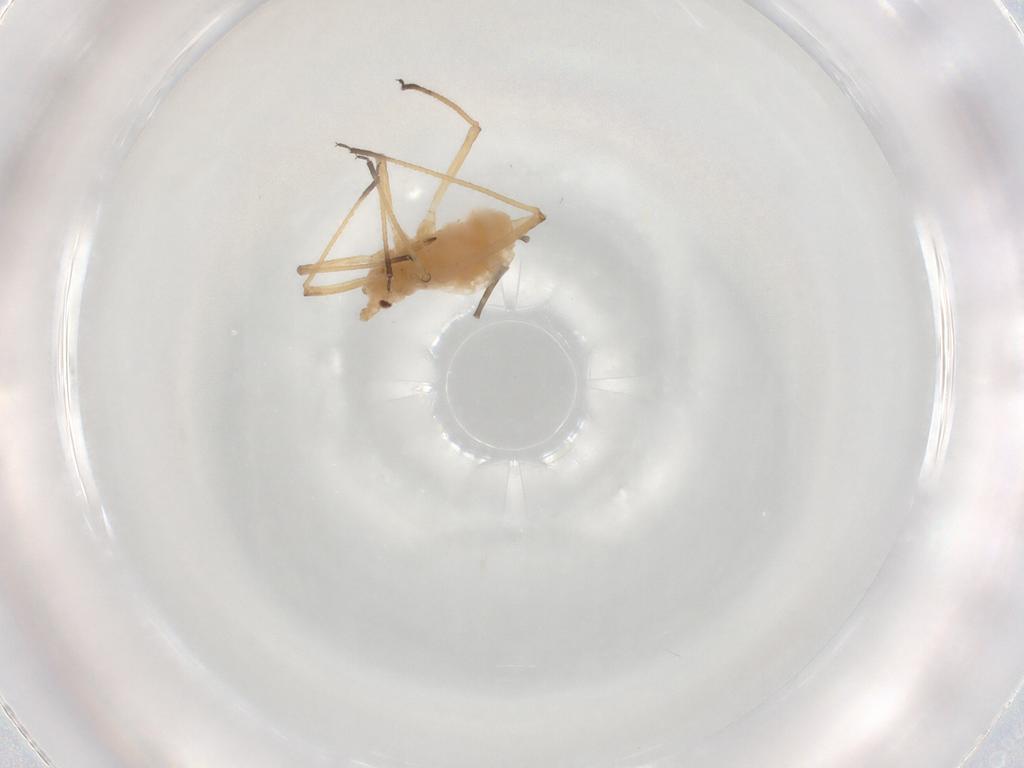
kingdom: Animalia
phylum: Arthropoda
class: Insecta
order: Hemiptera
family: Aphididae
